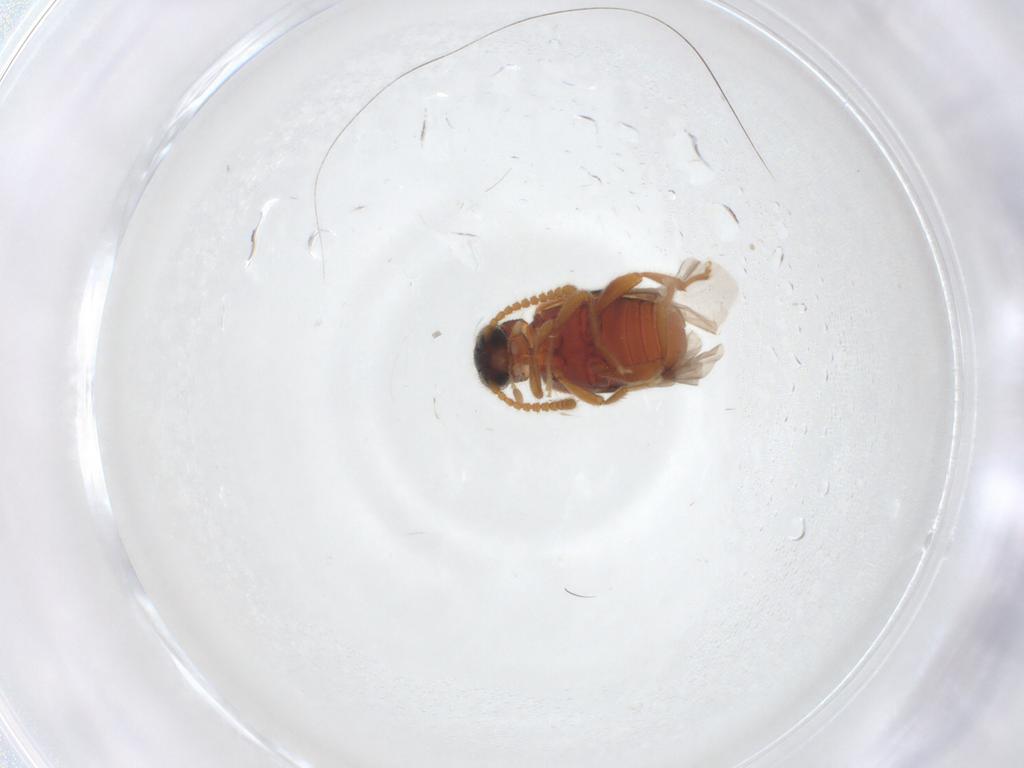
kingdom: Animalia
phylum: Arthropoda
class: Insecta
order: Coleoptera
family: Aderidae
